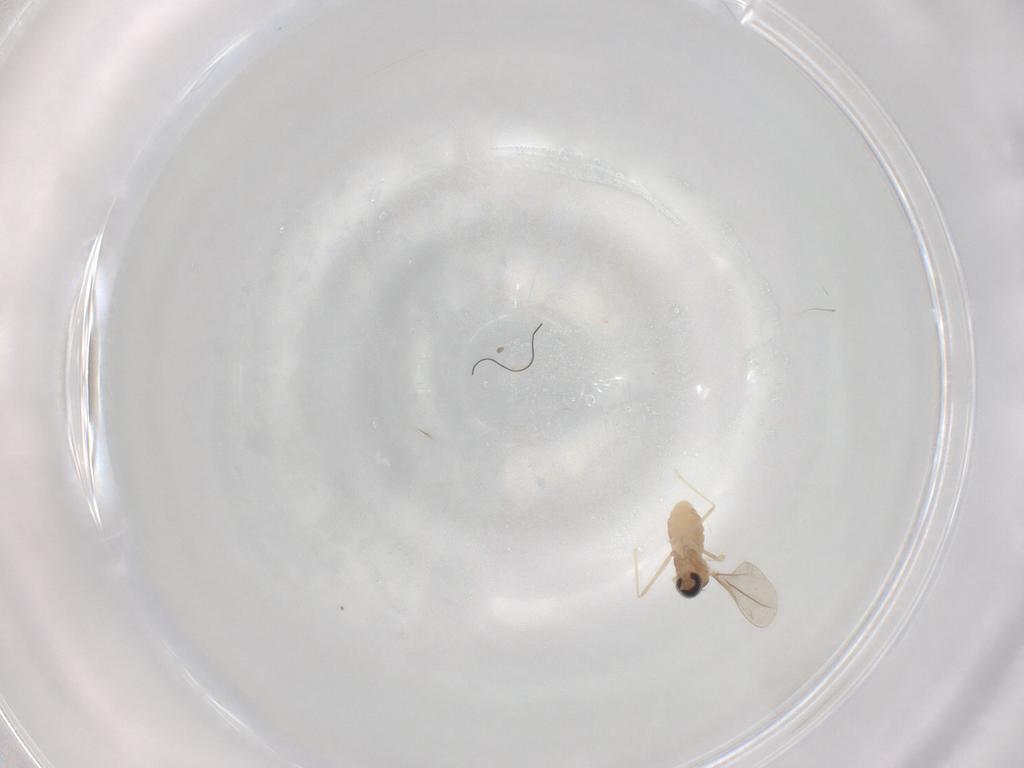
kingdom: Animalia
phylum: Arthropoda
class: Insecta
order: Diptera
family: Cecidomyiidae
